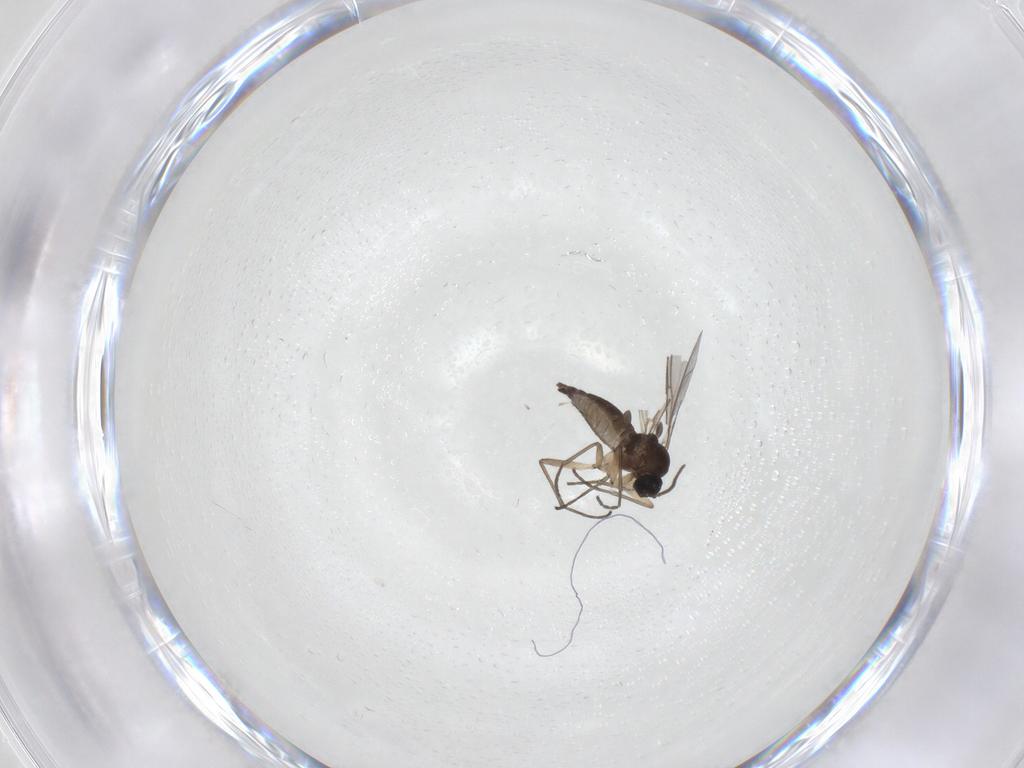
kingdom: Animalia
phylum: Arthropoda
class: Insecta
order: Diptera
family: Sciaridae
